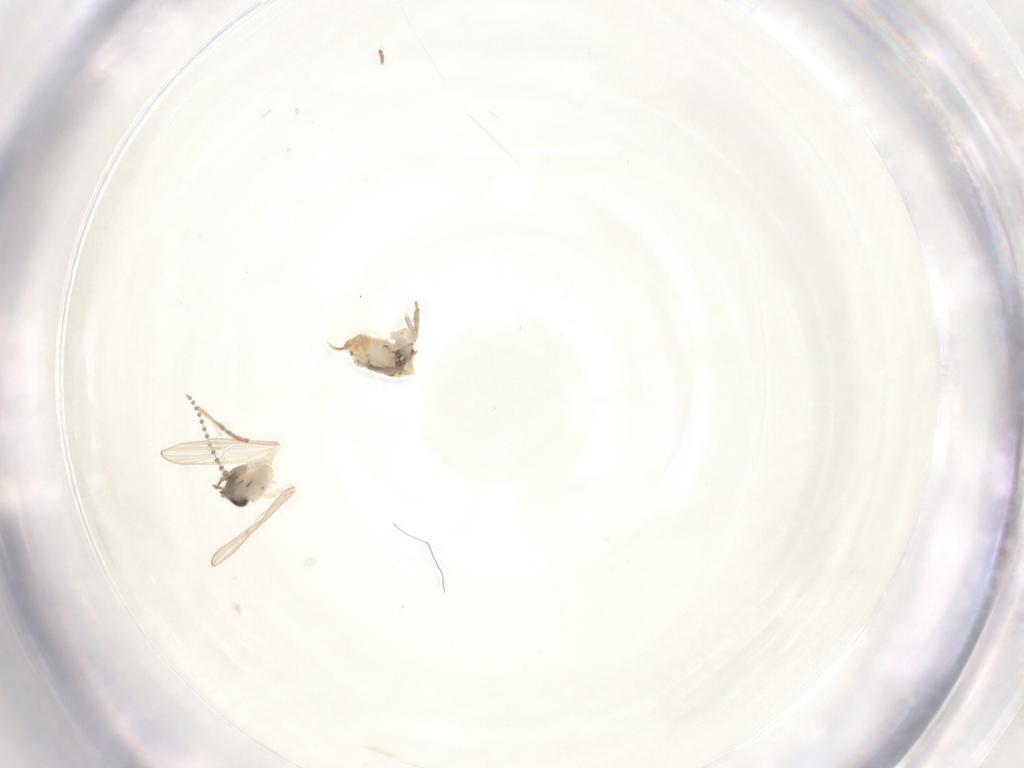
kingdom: Animalia
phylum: Arthropoda
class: Insecta
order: Diptera
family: Psychodidae
